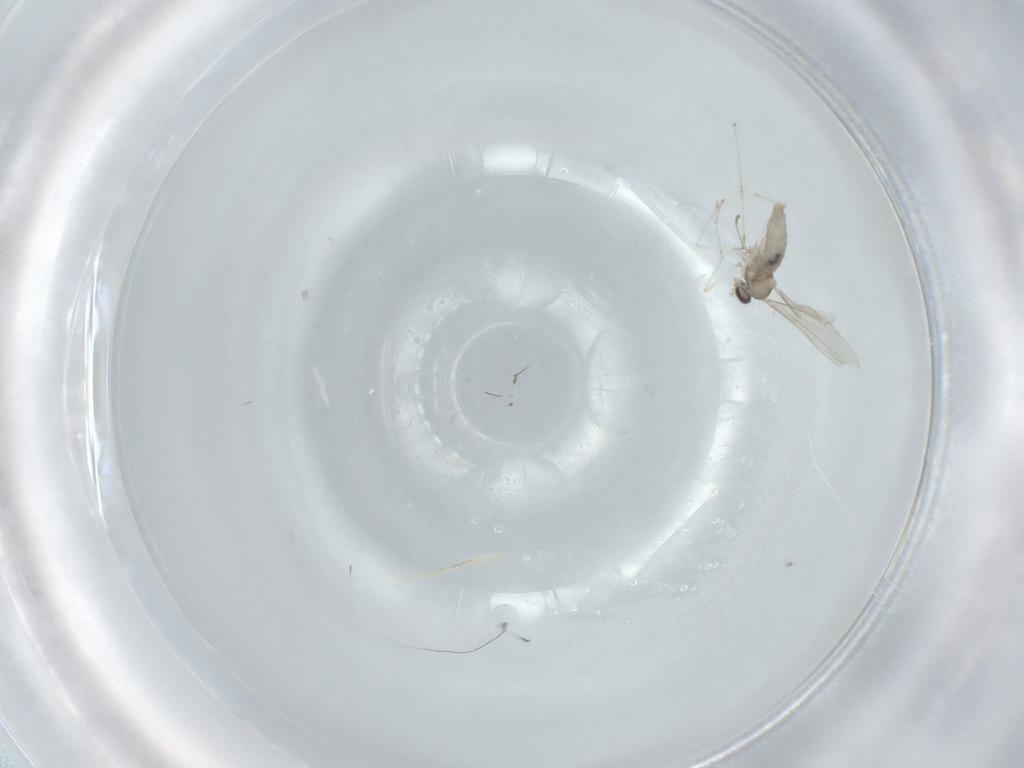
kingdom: Animalia
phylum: Arthropoda
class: Insecta
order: Diptera
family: Cecidomyiidae
